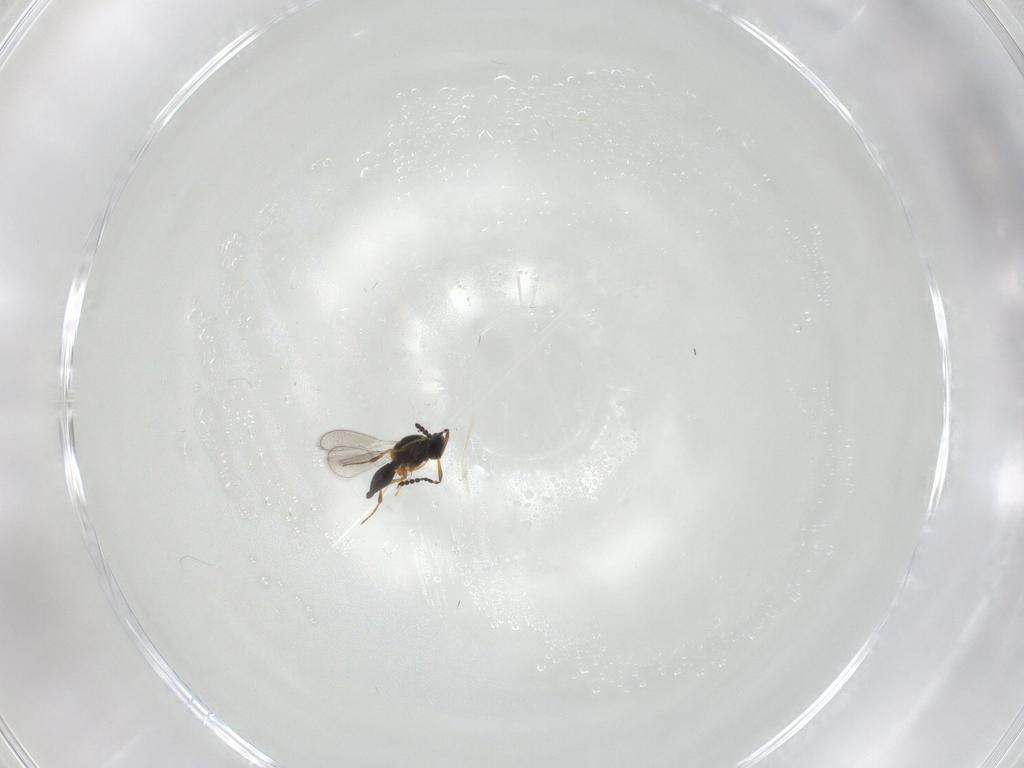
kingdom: Animalia
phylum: Arthropoda
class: Insecta
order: Hymenoptera
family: Platygastridae
